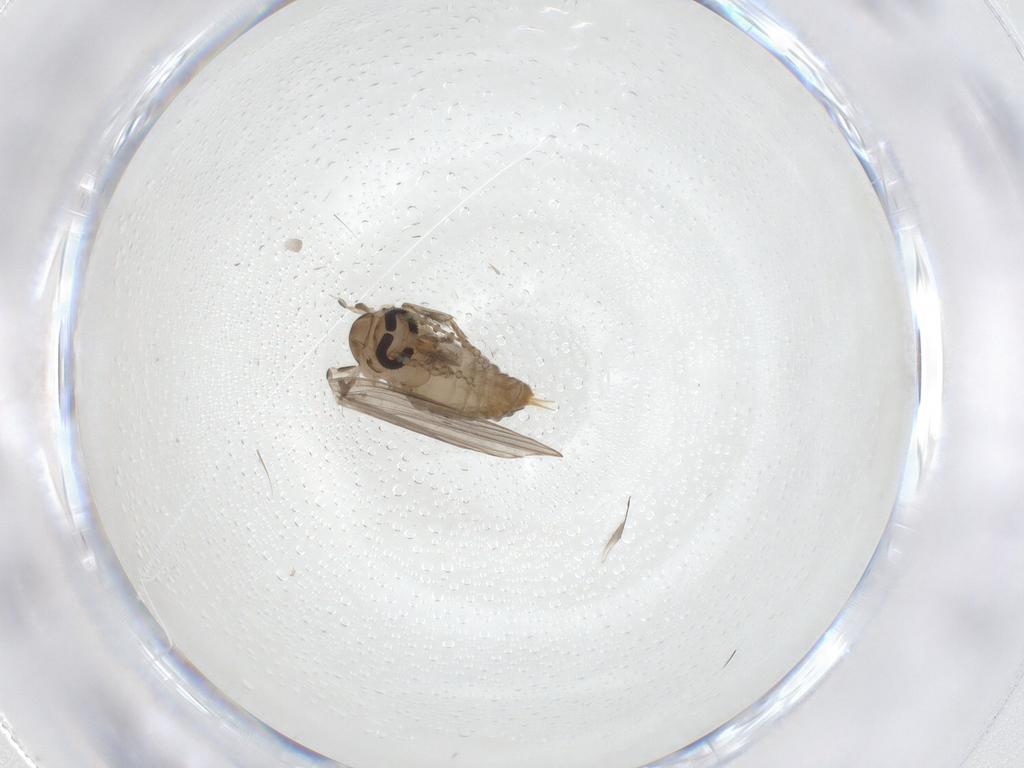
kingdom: Animalia
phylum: Arthropoda
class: Insecta
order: Diptera
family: Psychodidae
